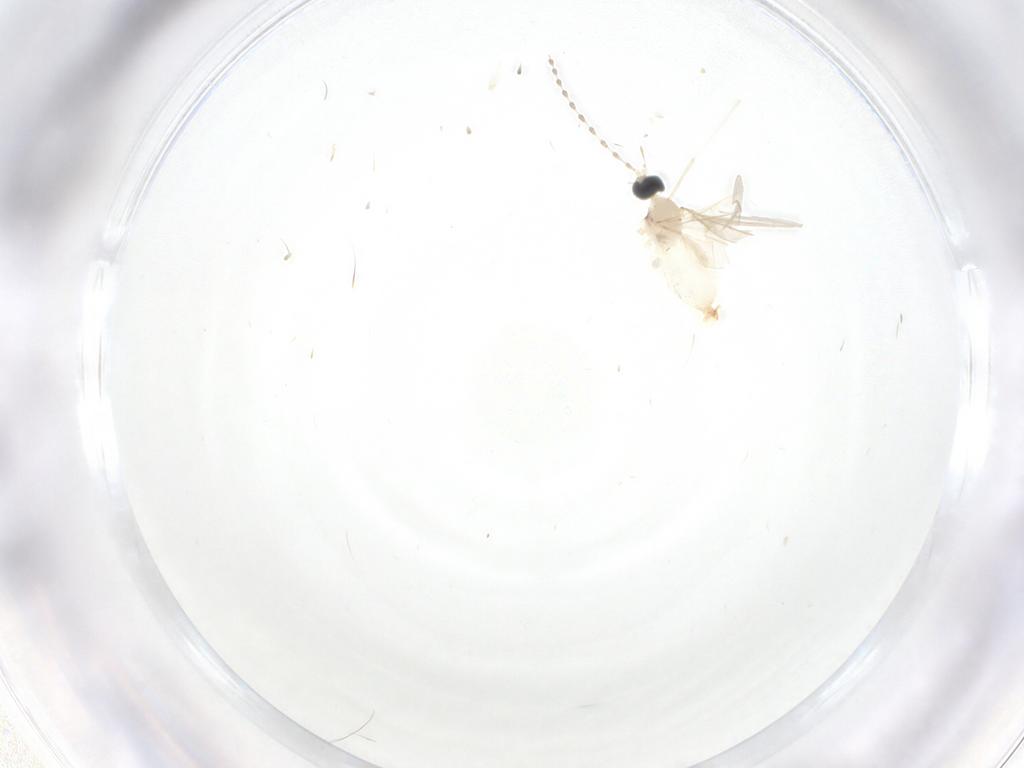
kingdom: Animalia
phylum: Arthropoda
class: Insecta
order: Diptera
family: Cecidomyiidae
